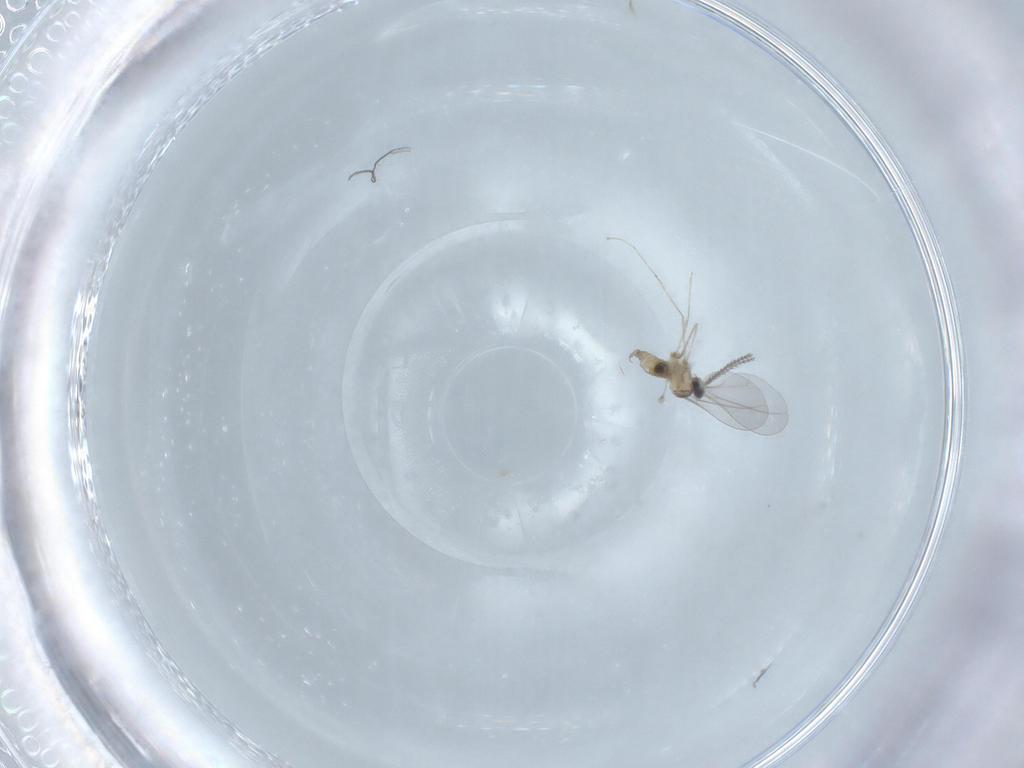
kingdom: Animalia
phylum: Arthropoda
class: Insecta
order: Diptera
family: Sciaridae
